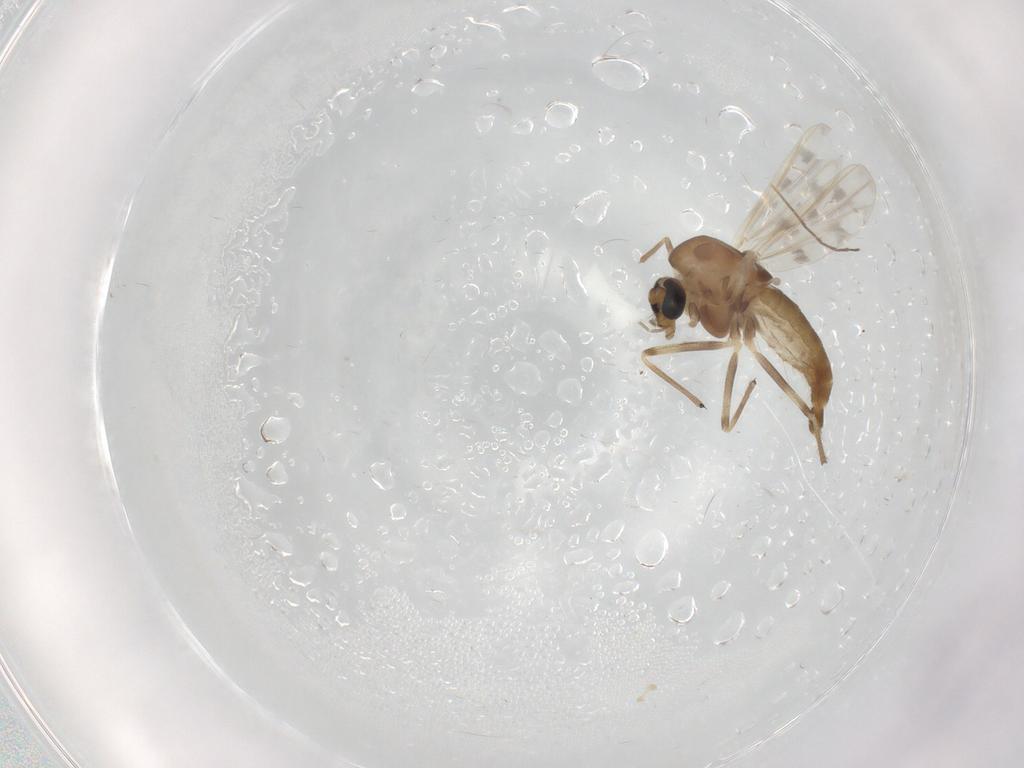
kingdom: Animalia
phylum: Arthropoda
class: Insecta
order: Diptera
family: Chironomidae
